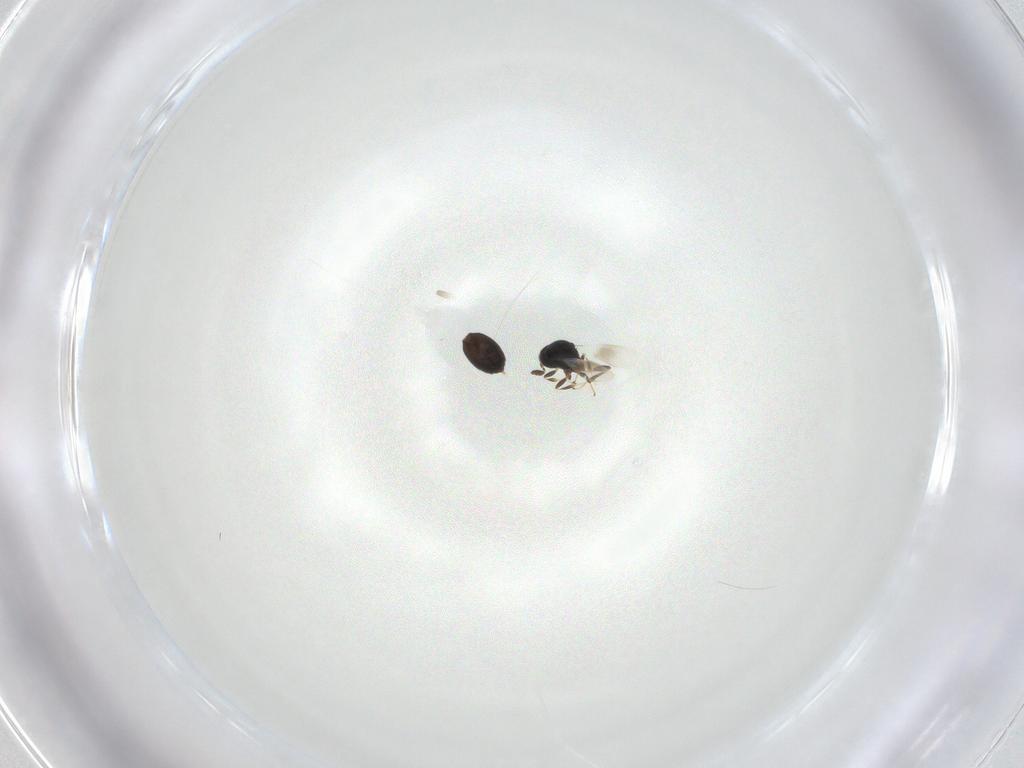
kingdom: Animalia
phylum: Arthropoda
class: Insecta
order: Hymenoptera
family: Platygastridae
